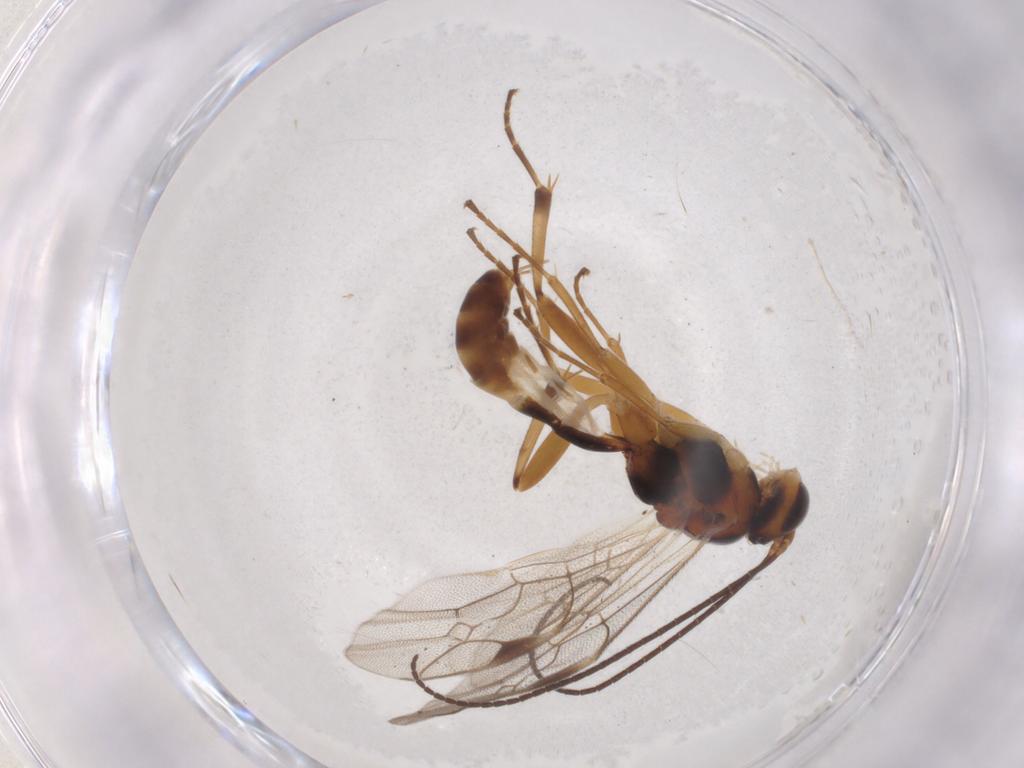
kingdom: Animalia
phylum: Arthropoda
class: Insecta
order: Hymenoptera
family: Ichneumonidae
